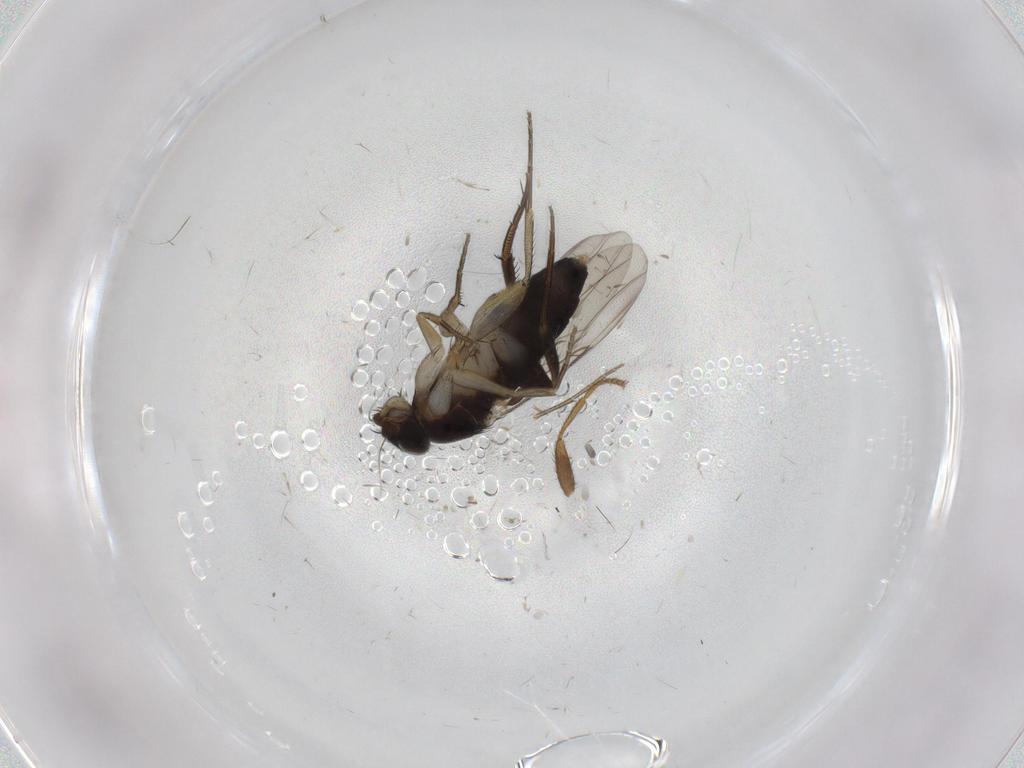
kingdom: Animalia
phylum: Arthropoda
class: Insecta
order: Diptera
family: Phoridae
